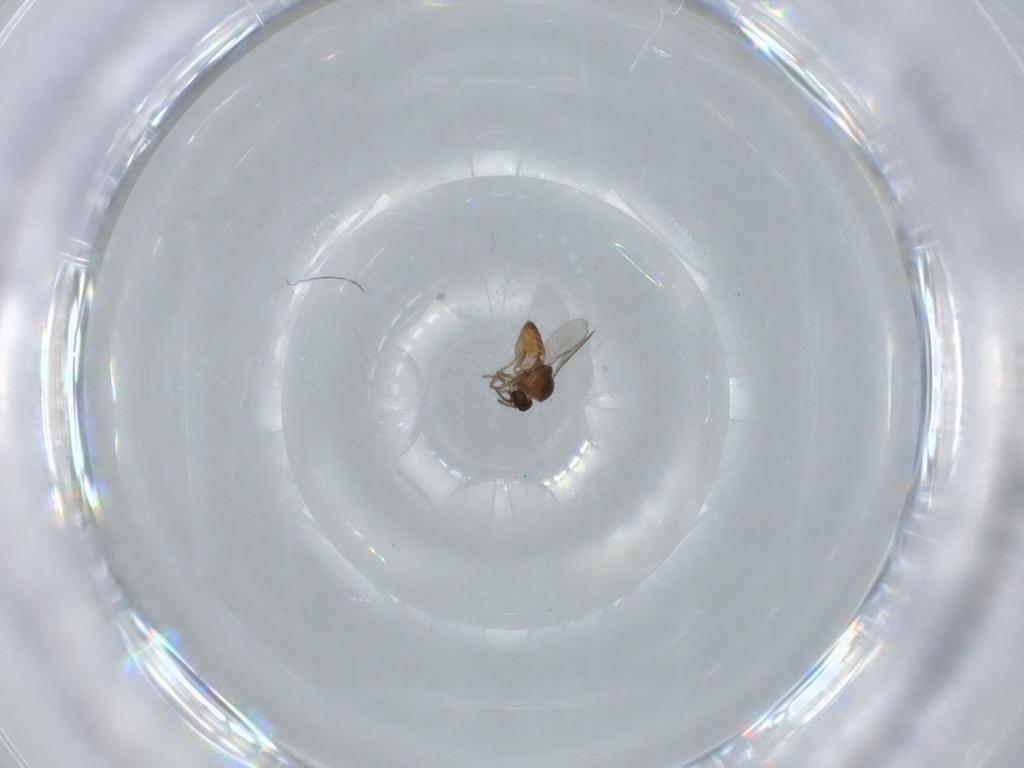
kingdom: Animalia
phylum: Arthropoda
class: Insecta
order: Diptera
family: Ceratopogonidae
